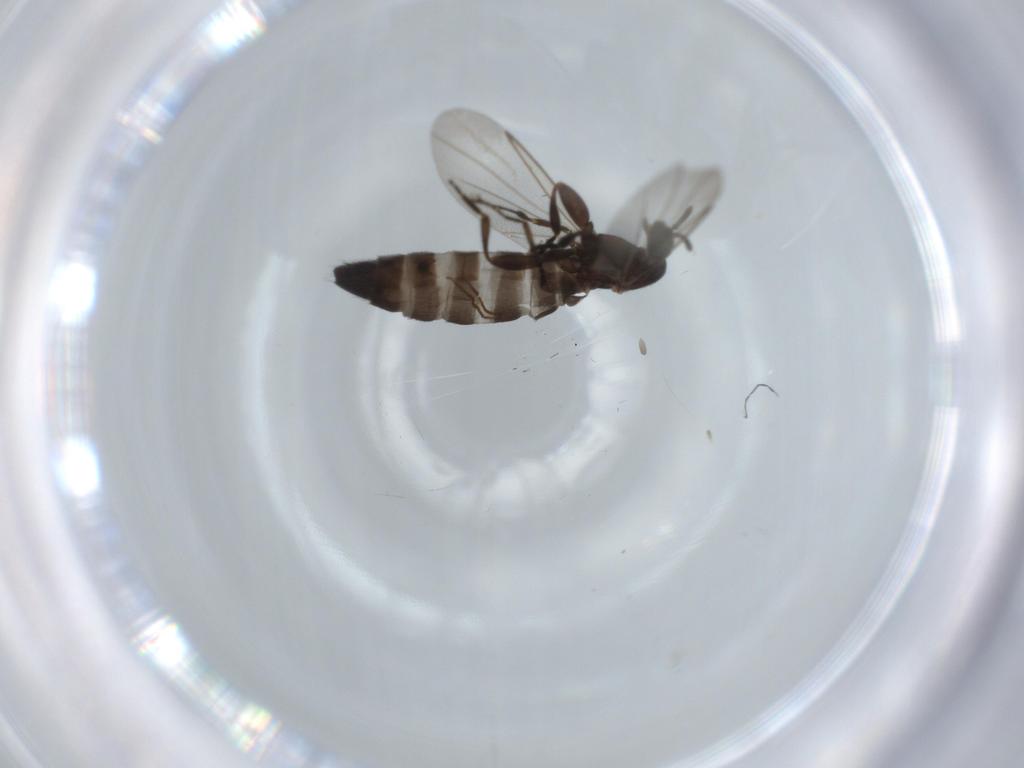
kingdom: Animalia
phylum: Arthropoda
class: Insecta
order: Diptera
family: Scatopsidae
